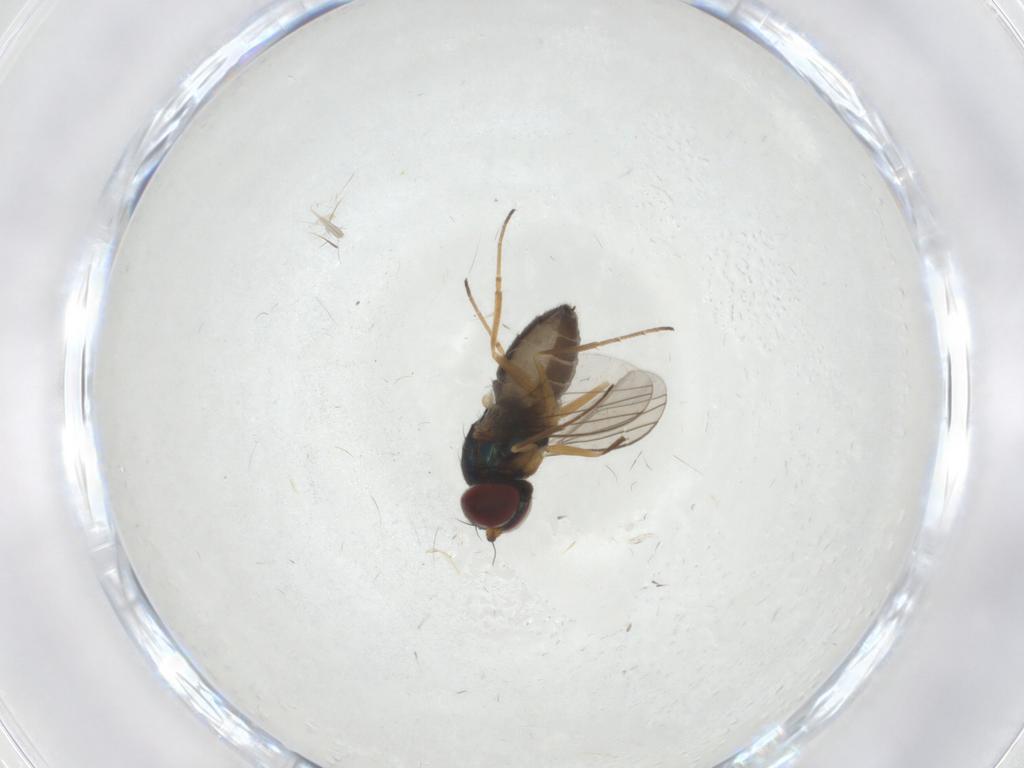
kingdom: Animalia
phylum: Arthropoda
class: Insecta
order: Diptera
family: Dolichopodidae
